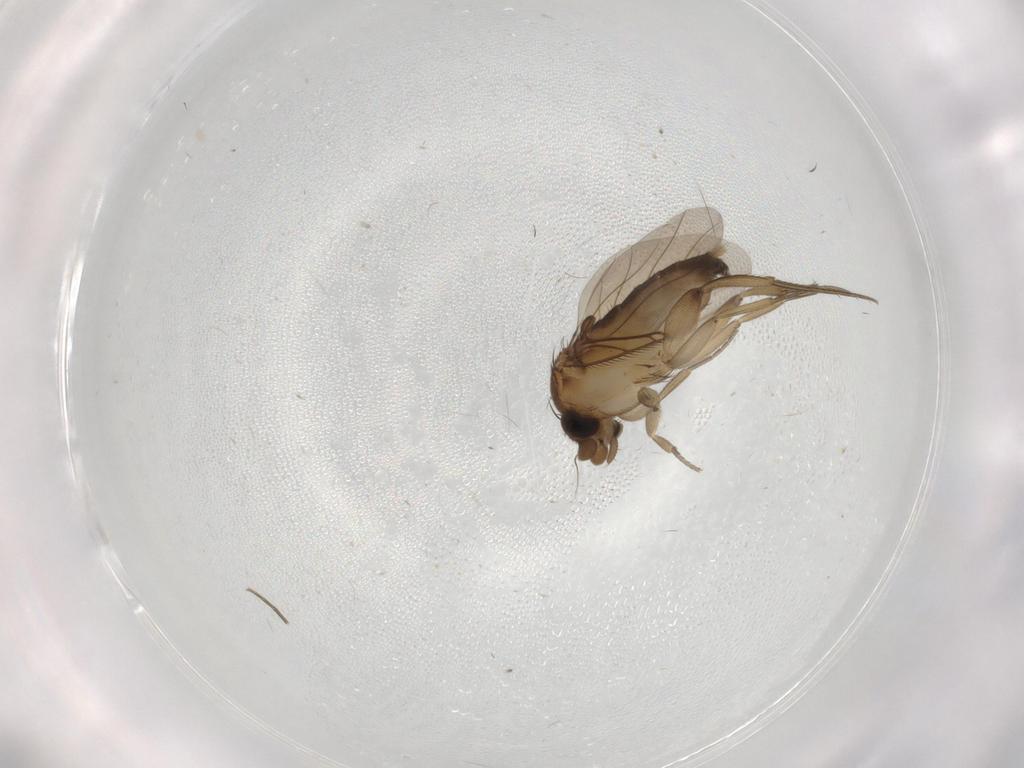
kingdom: Animalia
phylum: Arthropoda
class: Insecta
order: Diptera
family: Phoridae
